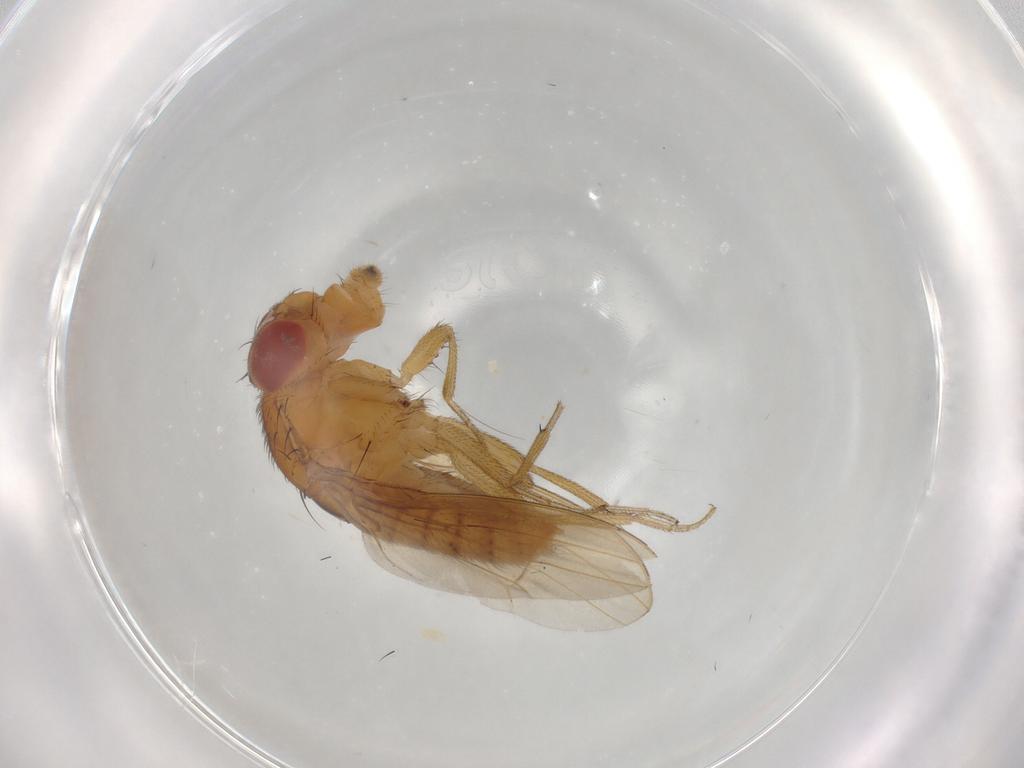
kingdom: Animalia
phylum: Arthropoda
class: Insecta
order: Diptera
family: Drosophilidae
